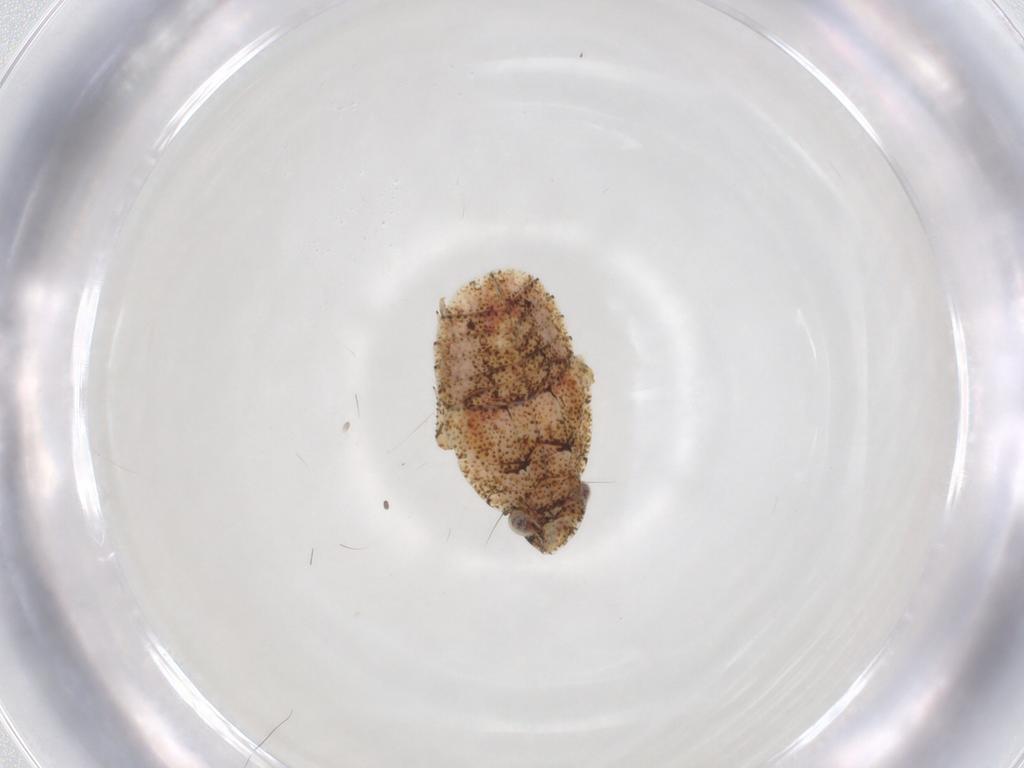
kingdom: Animalia
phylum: Arthropoda
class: Insecta
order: Hemiptera
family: Gengidae
